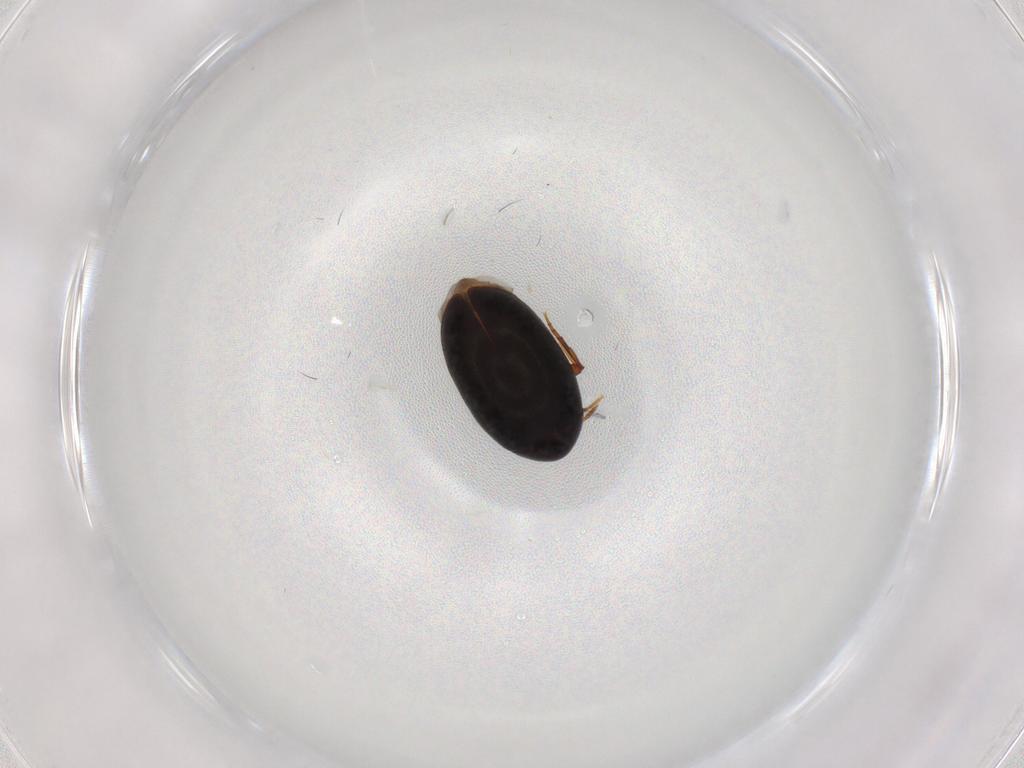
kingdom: Animalia
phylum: Arthropoda
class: Insecta
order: Coleoptera
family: Melandryidae
